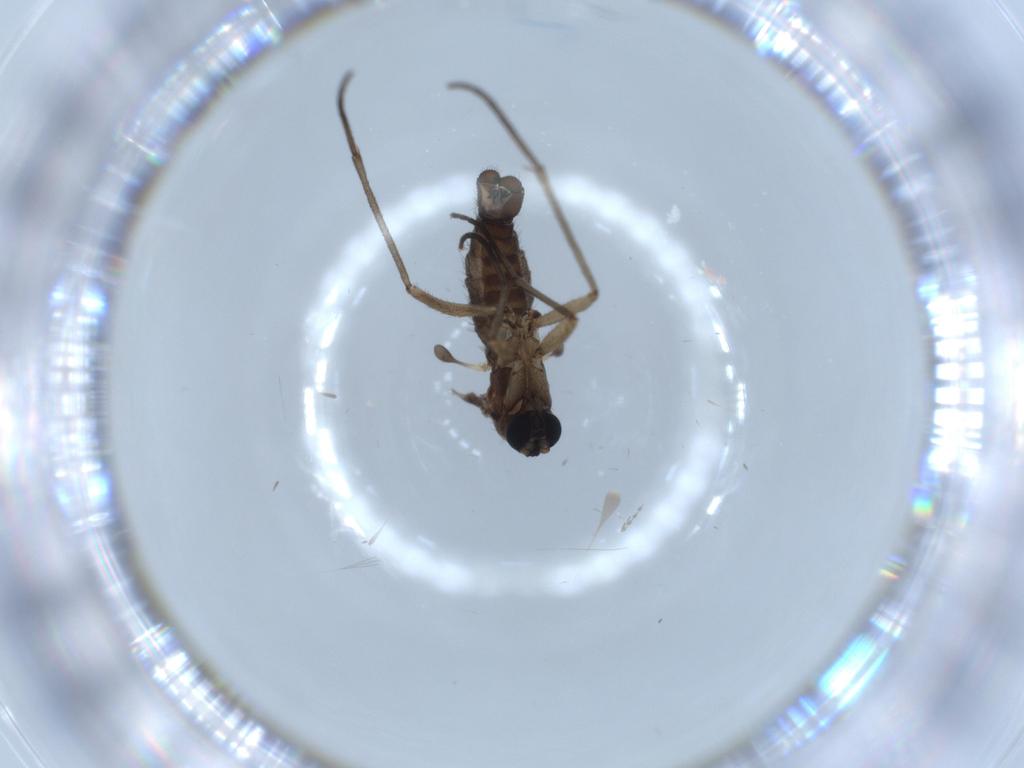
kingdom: Animalia
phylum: Arthropoda
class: Insecta
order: Diptera
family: Sciaridae
